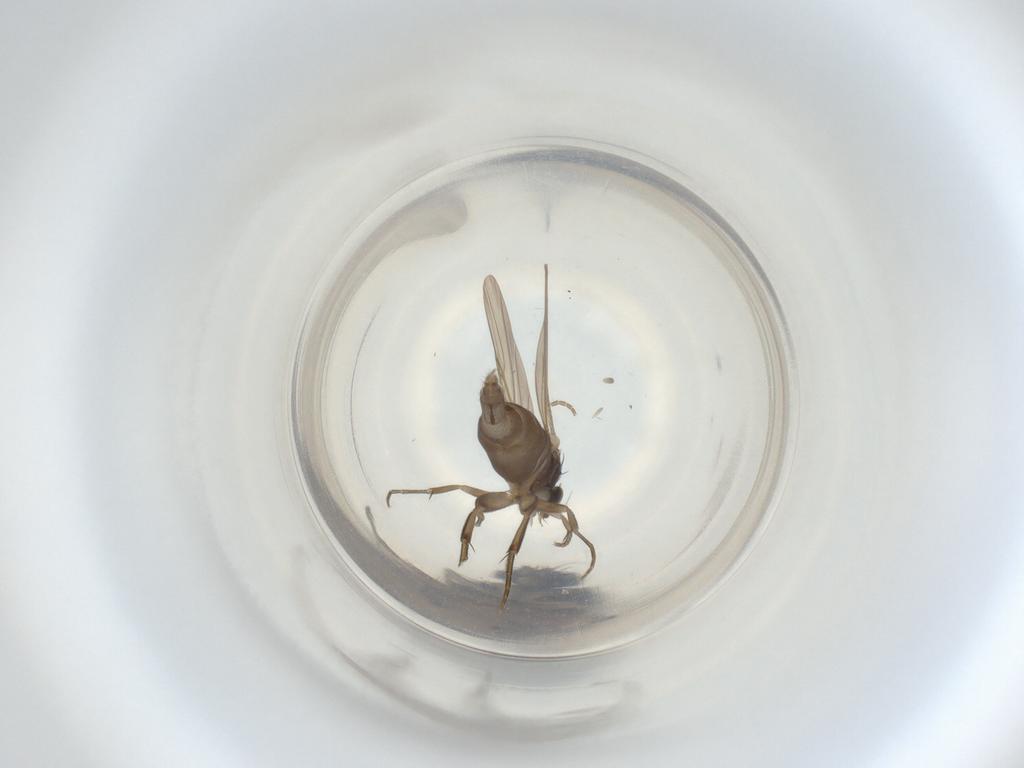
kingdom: Animalia
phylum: Arthropoda
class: Insecta
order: Diptera
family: Phoridae
